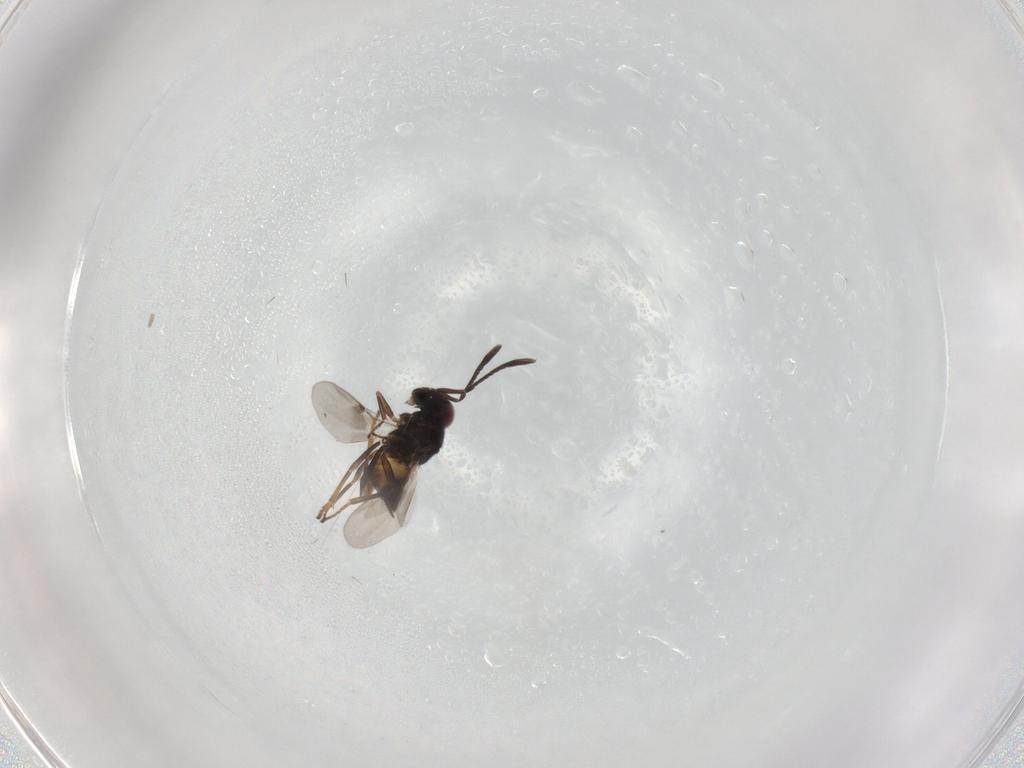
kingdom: Animalia
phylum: Arthropoda
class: Insecta
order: Hymenoptera
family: Encyrtidae
